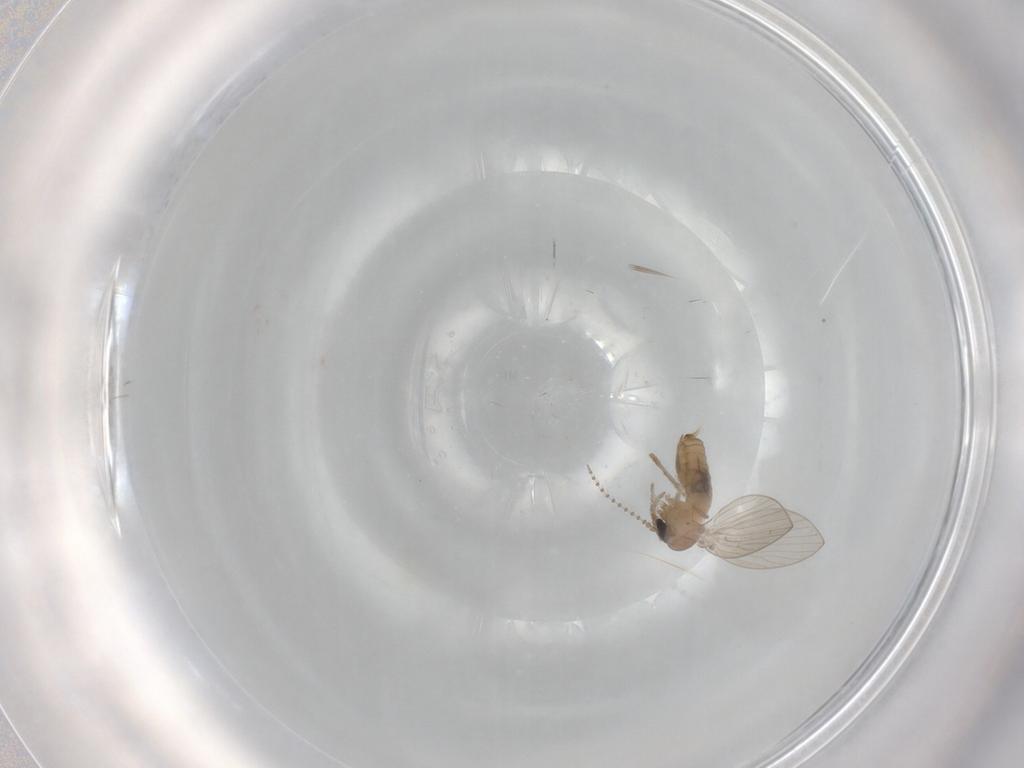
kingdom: Animalia
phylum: Arthropoda
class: Insecta
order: Diptera
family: Psychodidae
